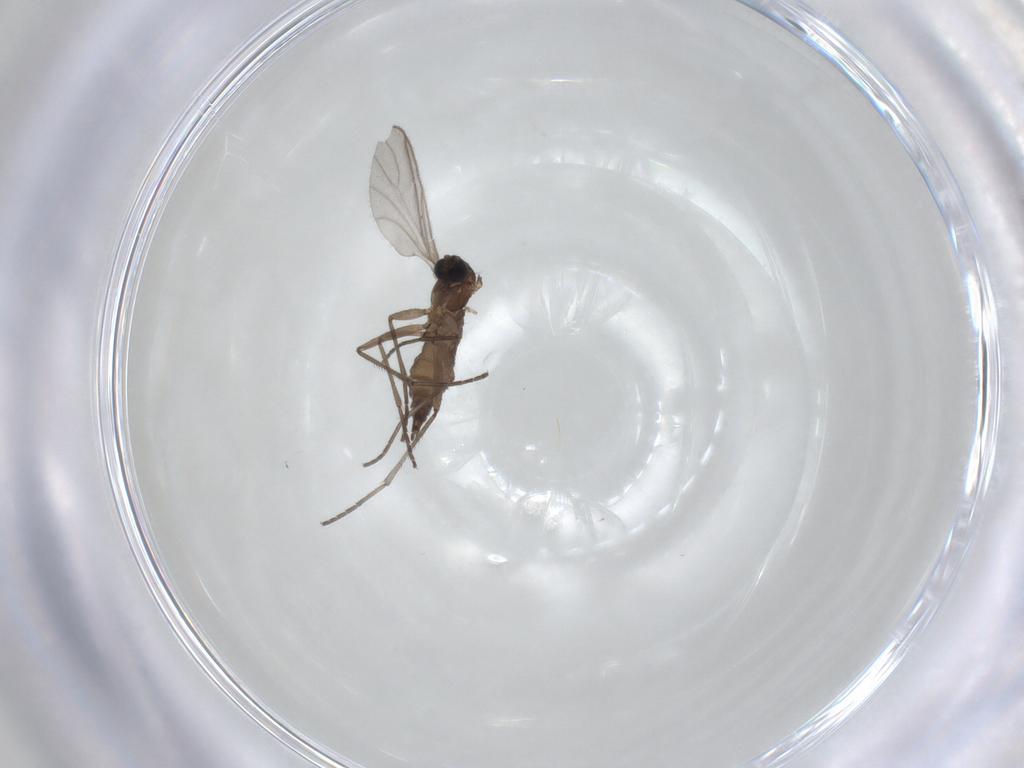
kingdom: Animalia
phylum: Arthropoda
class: Insecta
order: Diptera
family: Sciaridae
